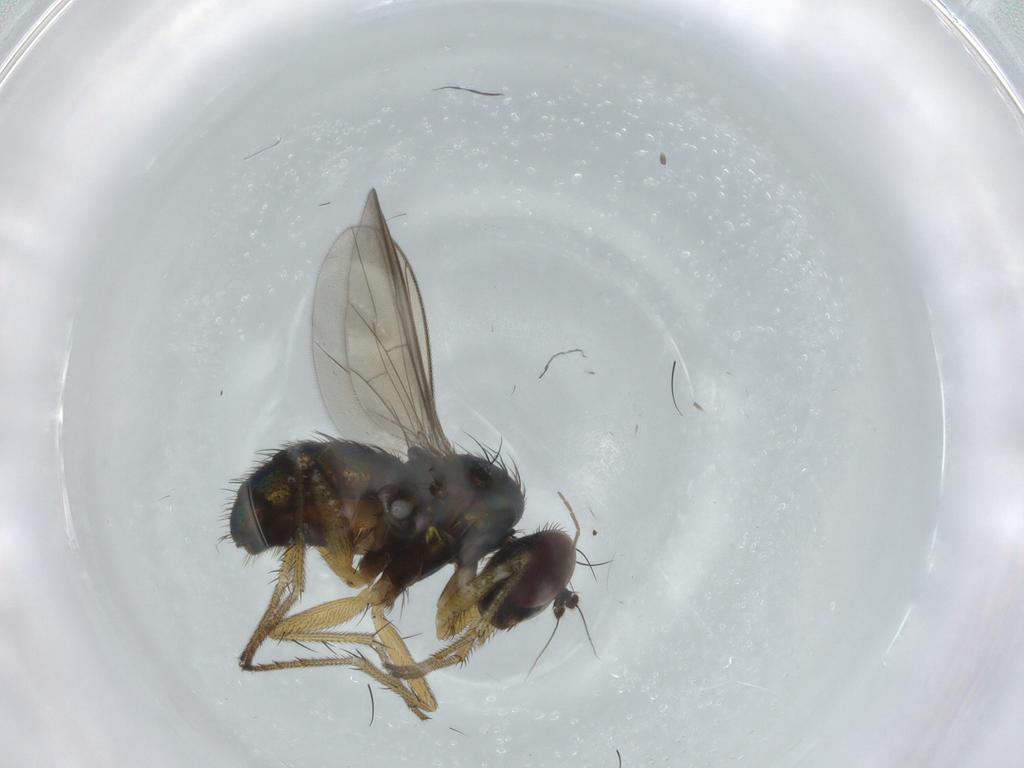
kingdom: Animalia
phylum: Arthropoda
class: Insecta
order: Diptera
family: Dolichopodidae
